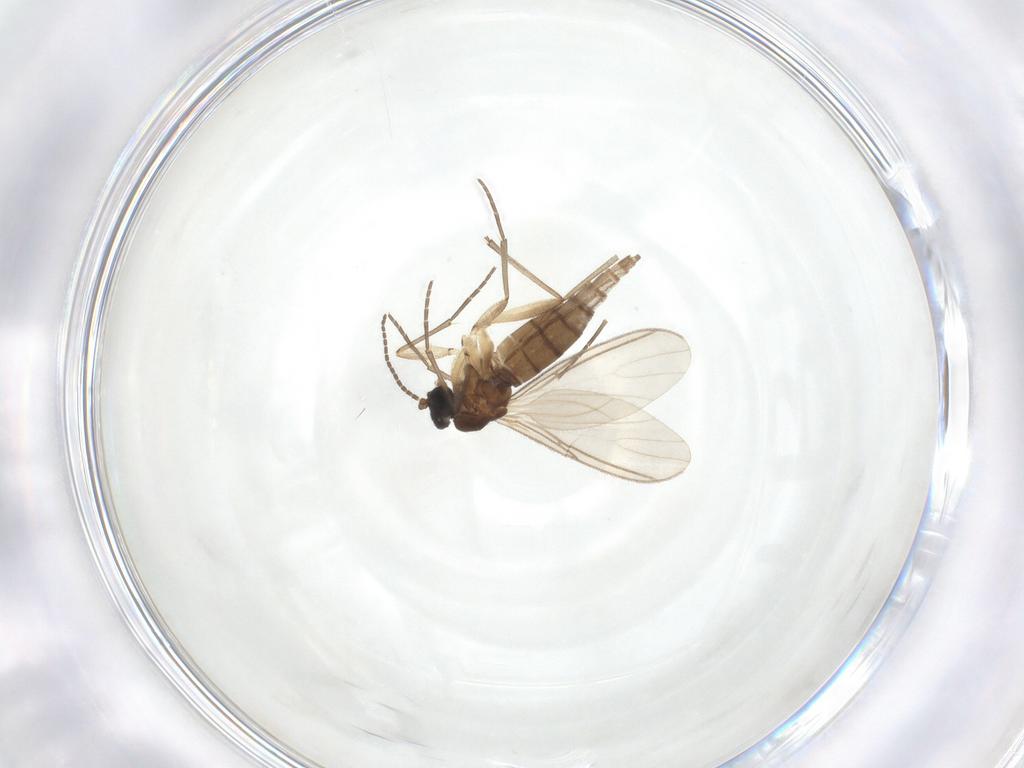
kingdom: Animalia
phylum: Arthropoda
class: Insecta
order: Diptera
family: Sciaridae
